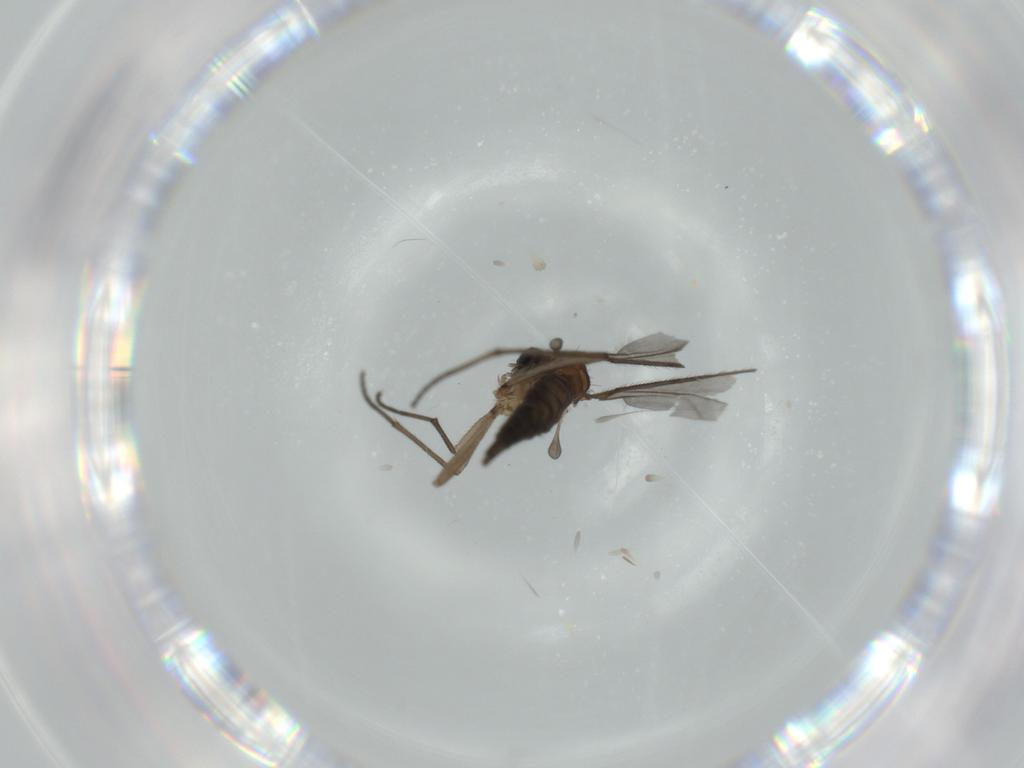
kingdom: Animalia
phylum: Arthropoda
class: Insecta
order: Diptera
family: Sciaridae
